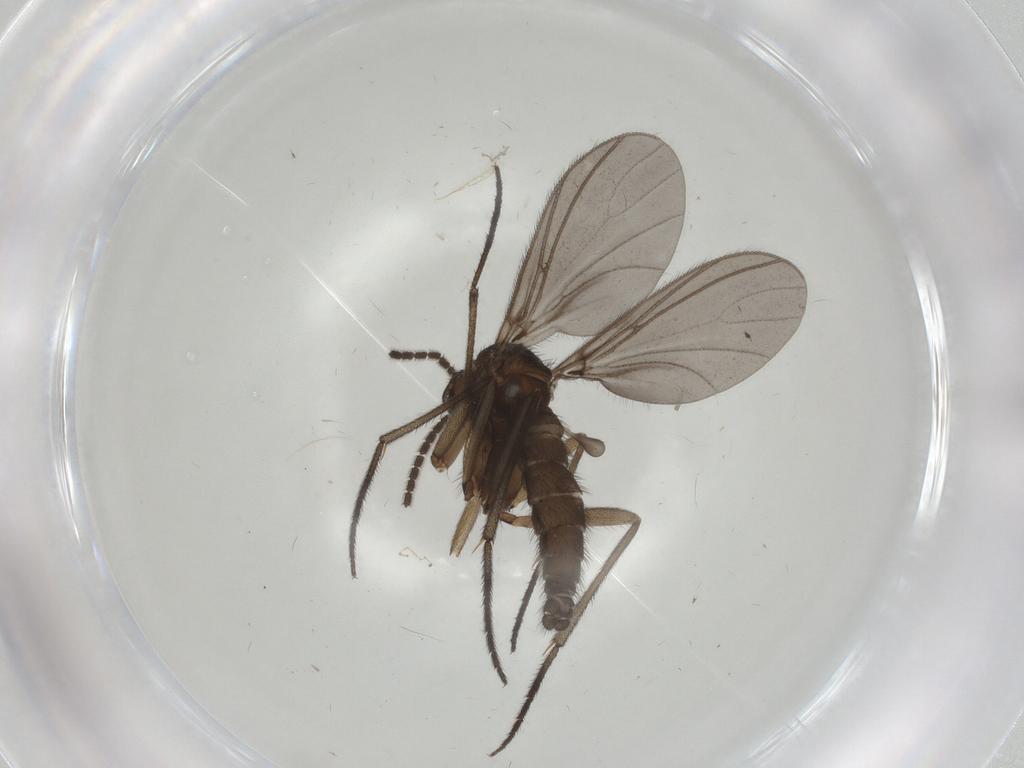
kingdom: Animalia
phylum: Arthropoda
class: Insecta
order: Diptera
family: Sciaridae
